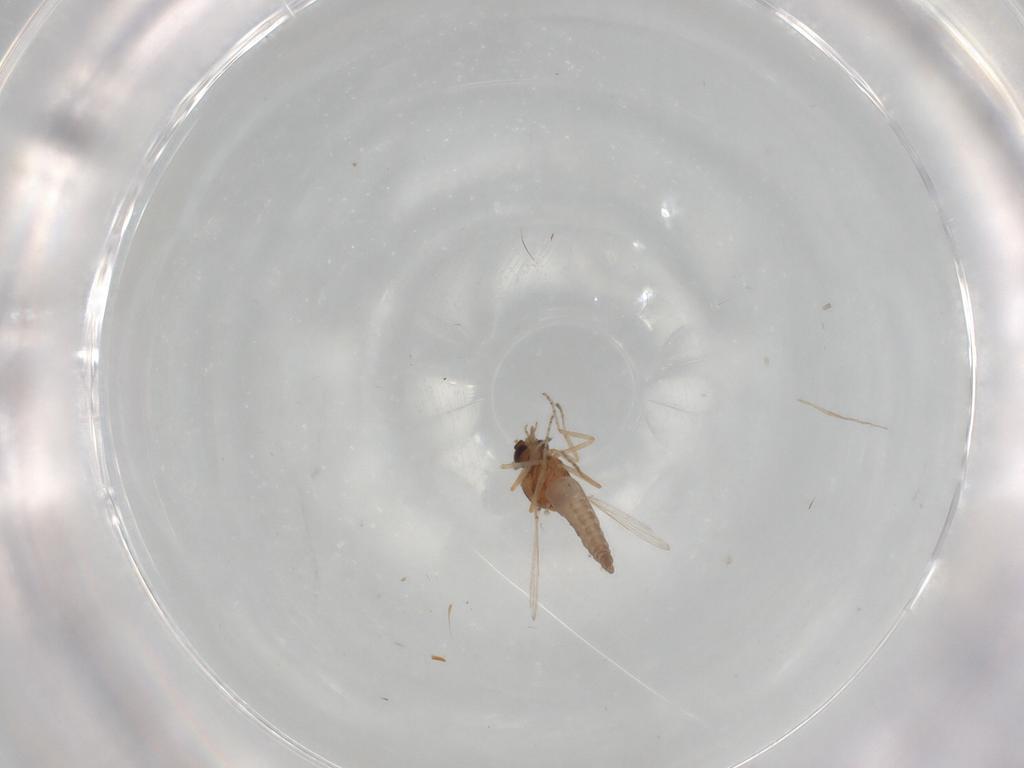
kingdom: Animalia
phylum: Arthropoda
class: Insecta
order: Diptera
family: Ceratopogonidae
